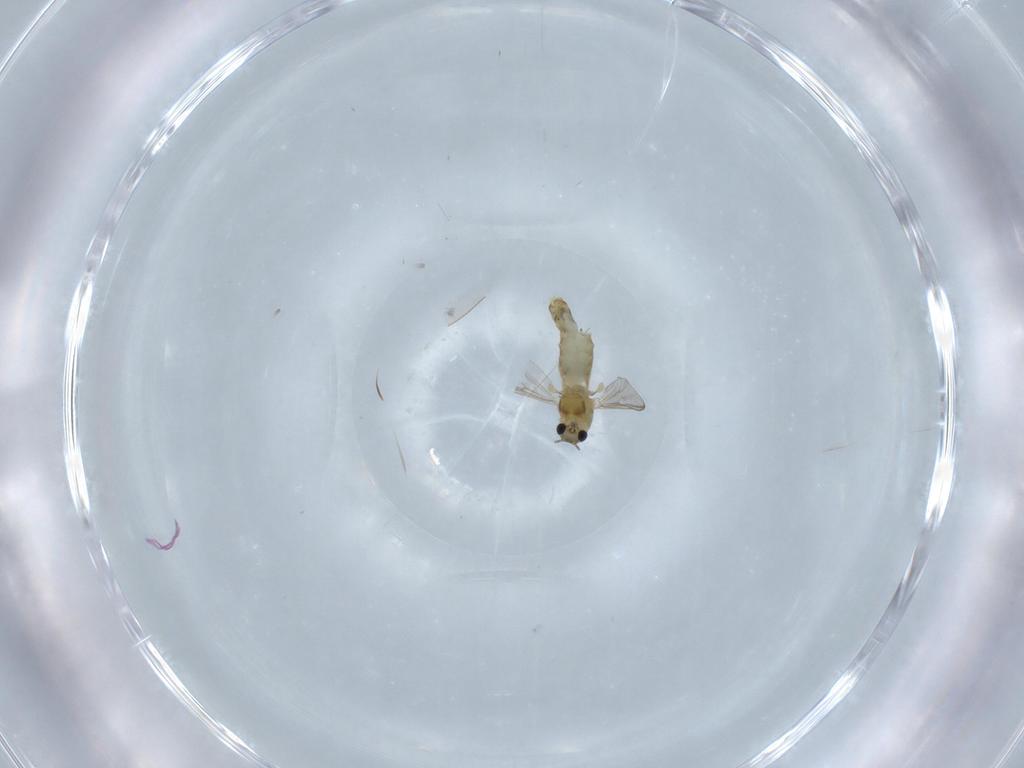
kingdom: Animalia
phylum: Arthropoda
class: Insecta
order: Diptera
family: Chironomidae
